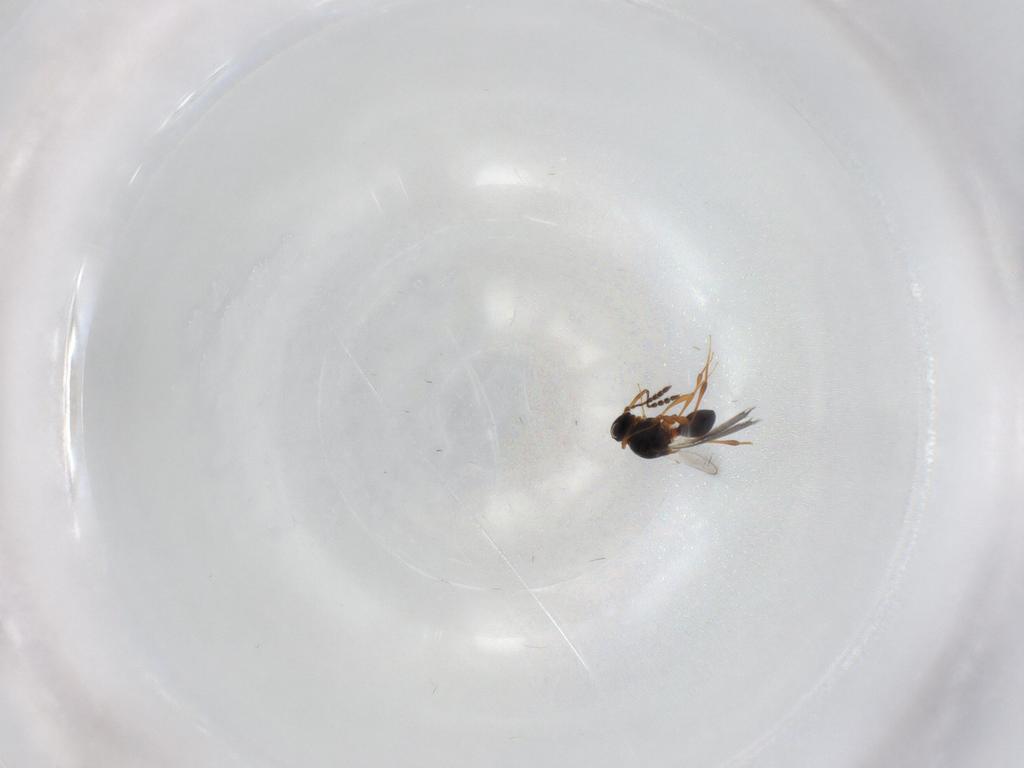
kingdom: Animalia
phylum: Arthropoda
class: Insecta
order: Hymenoptera
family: Platygastridae
